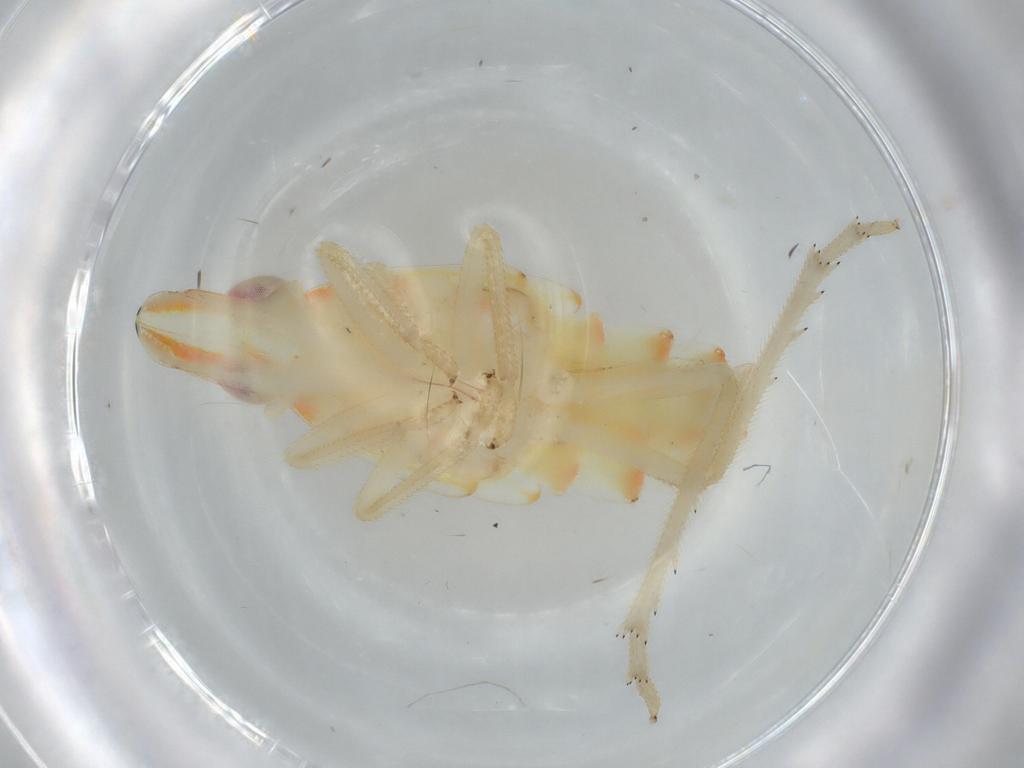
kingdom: Animalia
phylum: Arthropoda
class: Insecta
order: Hemiptera
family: Tropiduchidae
